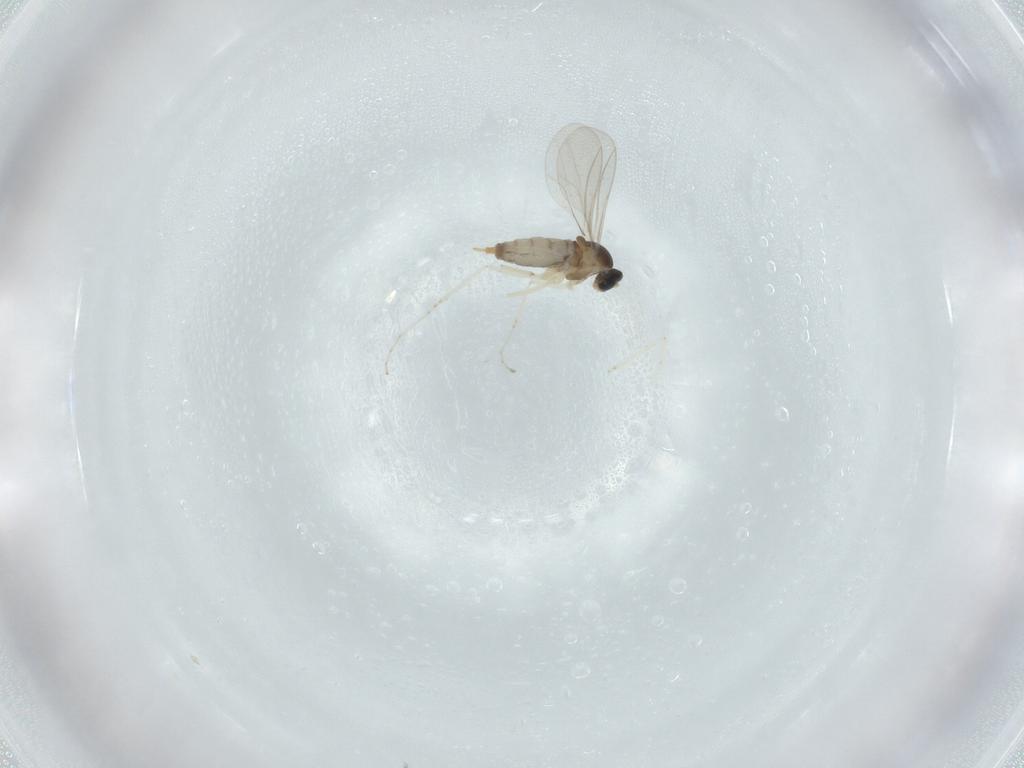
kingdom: Animalia
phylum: Arthropoda
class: Insecta
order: Diptera
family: Cecidomyiidae
